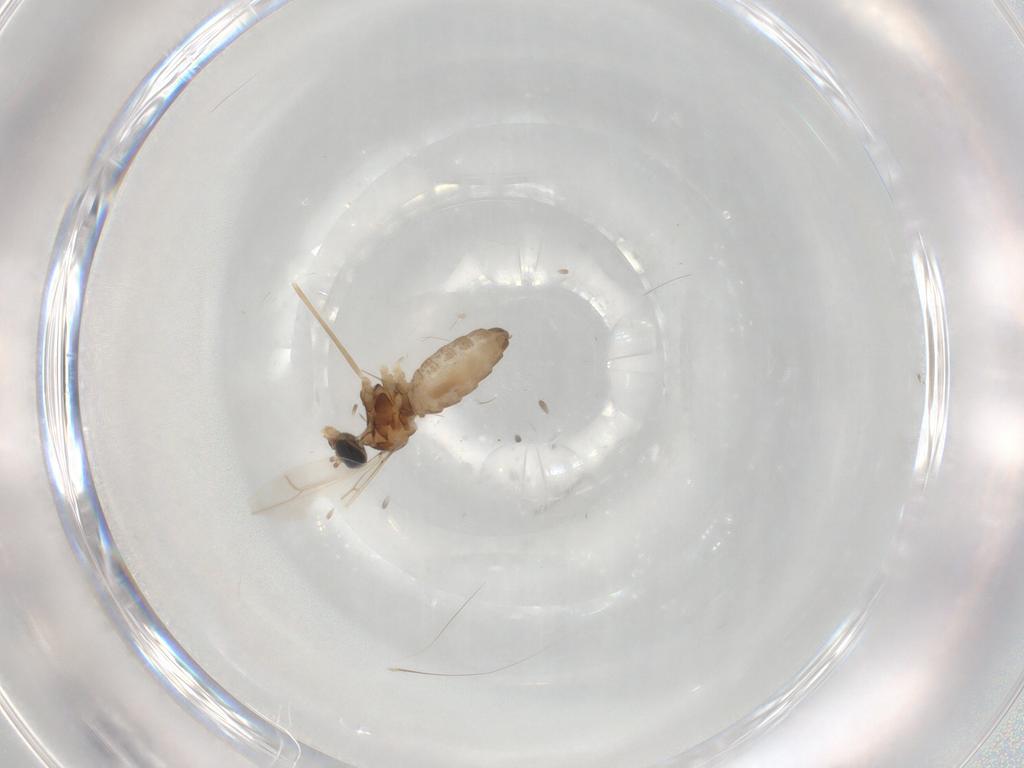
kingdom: Animalia
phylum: Arthropoda
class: Insecta
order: Diptera
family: Cecidomyiidae
